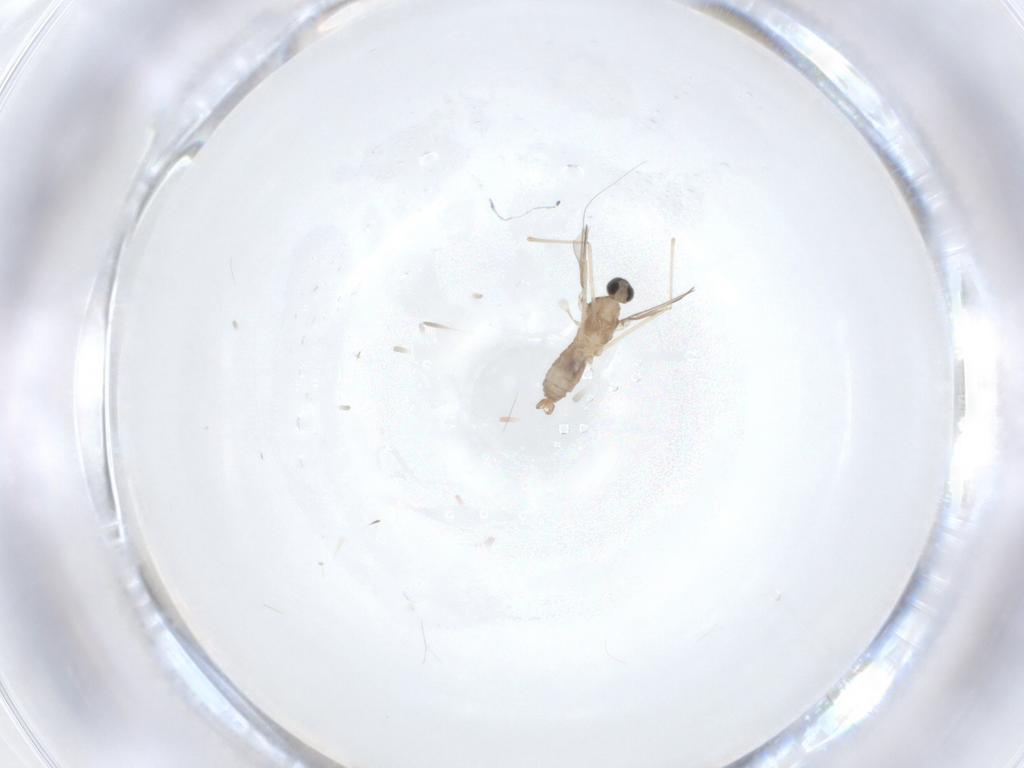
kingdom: Animalia
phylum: Arthropoda
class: Insecta
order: Diptera
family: Cecidomyiidae
